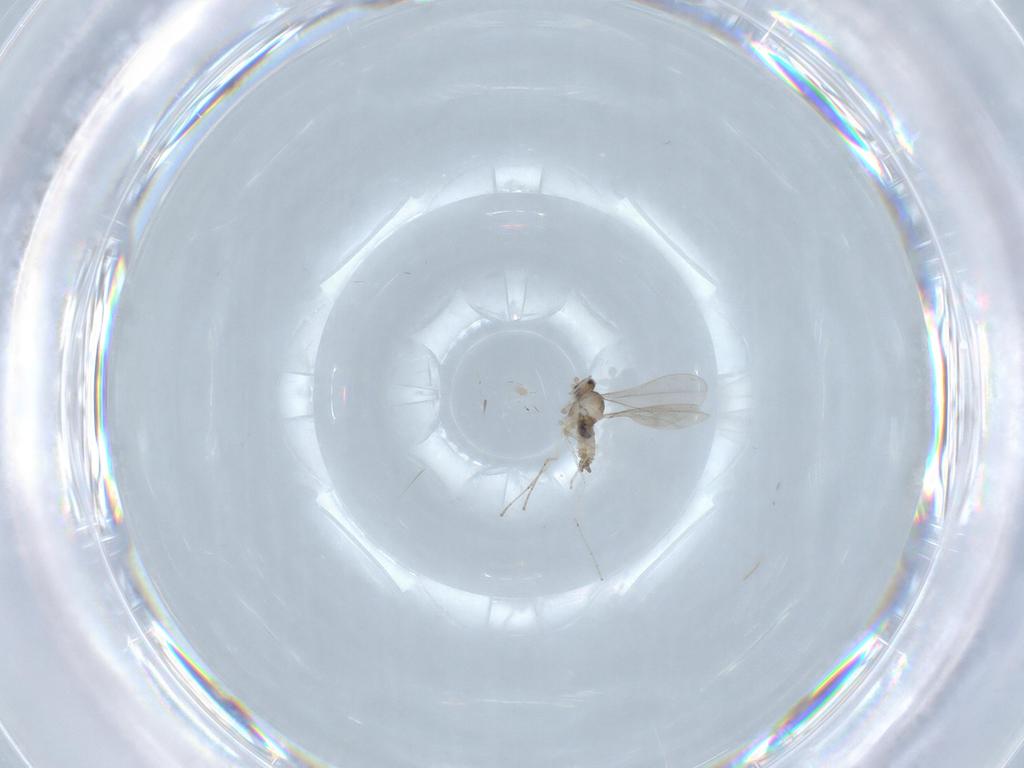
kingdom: Animalia
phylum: Arthropoda
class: Insecta
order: Diptera
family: Cecidomyiidae
